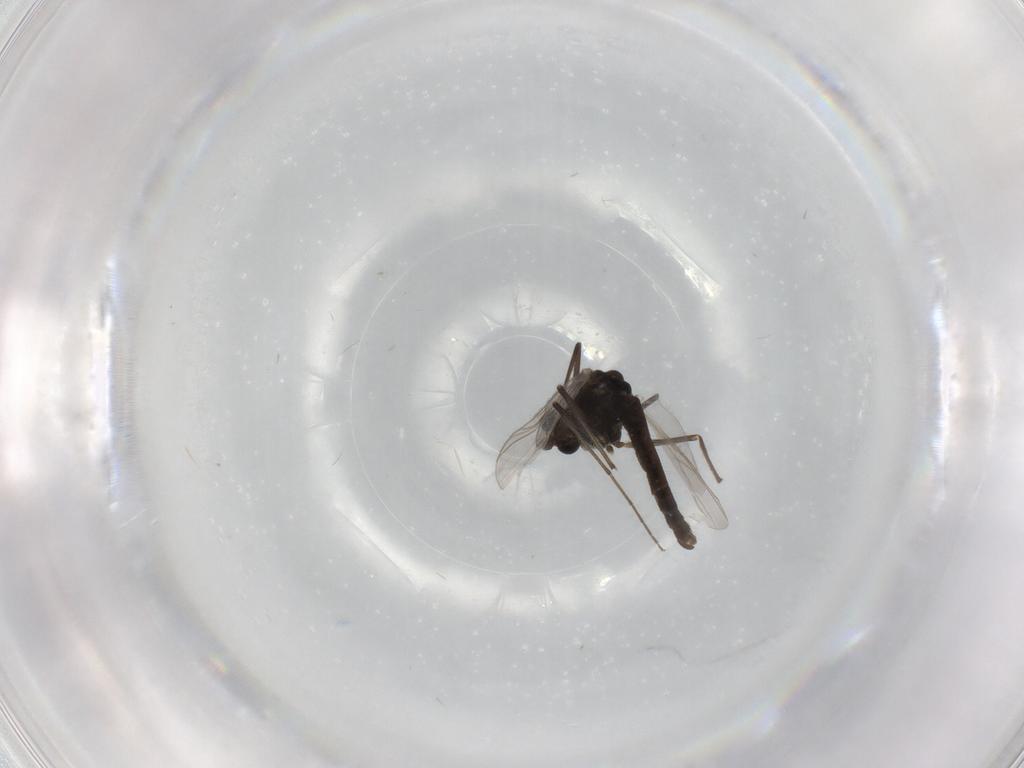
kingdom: Animalia
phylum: Arthropoda
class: Insecta
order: Diptera
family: Chironomidae
